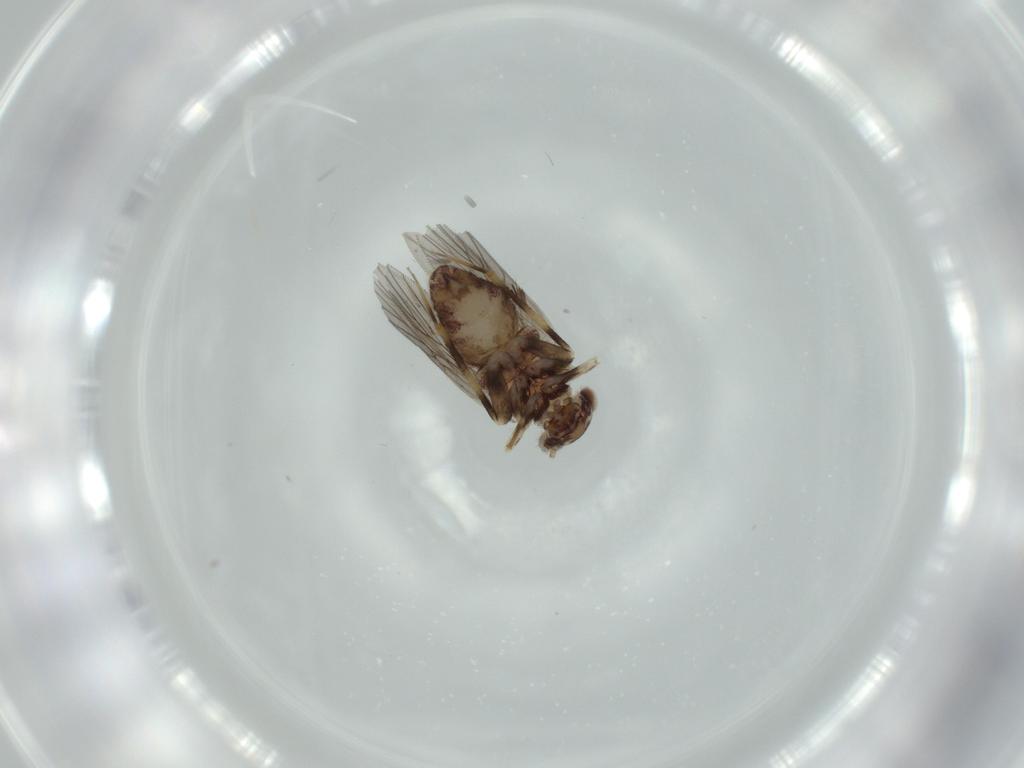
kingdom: Animalia
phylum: Arthropoda
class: Insecta
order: Psocodea
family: Lepidopsocidae
